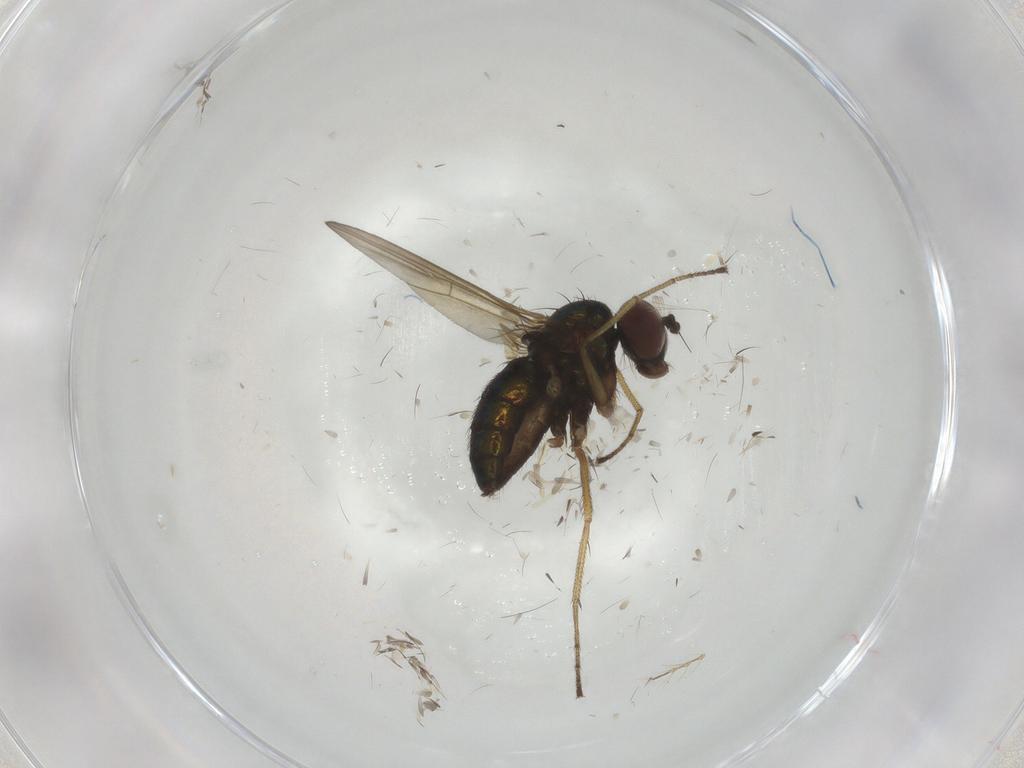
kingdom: Animalia
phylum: Arthropoda
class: Insecta
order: Diptera
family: Dolichopodidae
